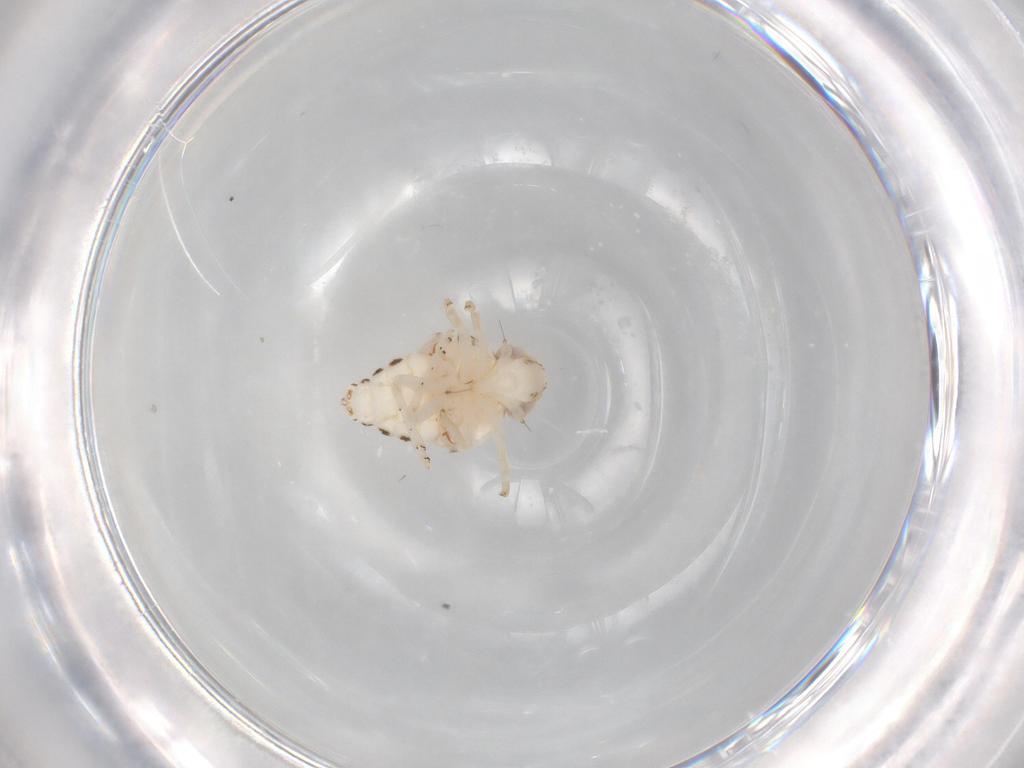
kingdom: Animalia
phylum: Arthropoda
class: Insecta
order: Hemiptera
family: Nogodinidae
